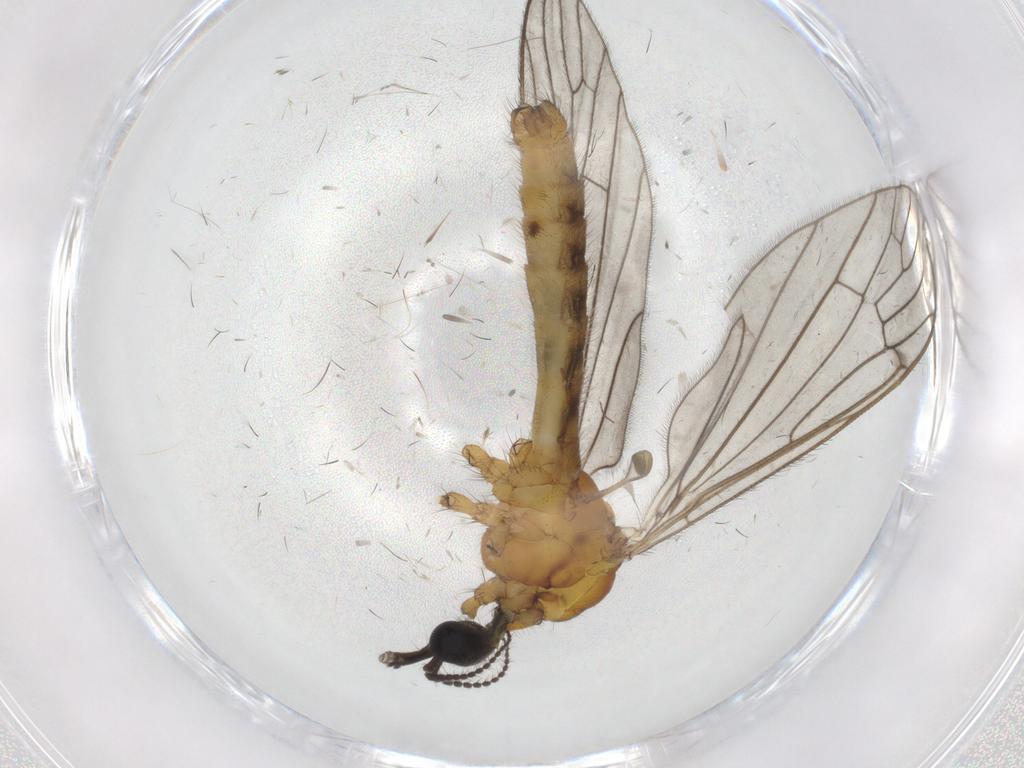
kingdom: Animalia
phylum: Arthropoda
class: Insecta
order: Diptera
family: Limoniidae
